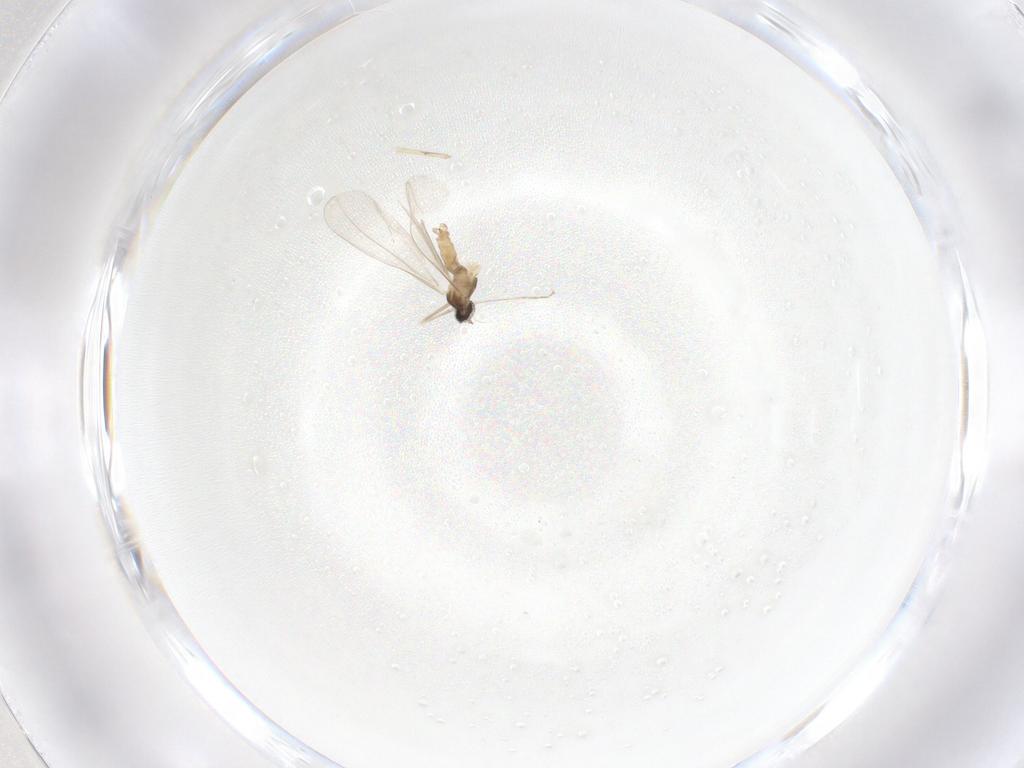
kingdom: Animalia
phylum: Arthropoda
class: Insecta
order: Diptera
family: Cecidomyiidae
